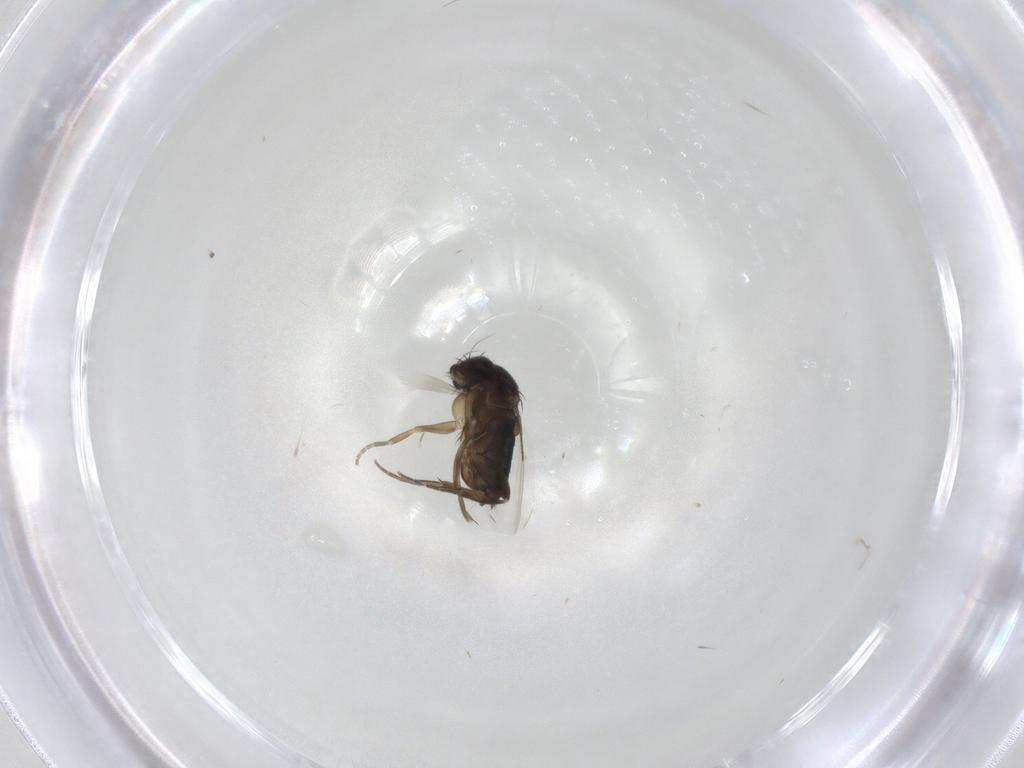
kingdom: Animalia
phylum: Arthropoda
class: Insecta
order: Diptera
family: Phoridae
